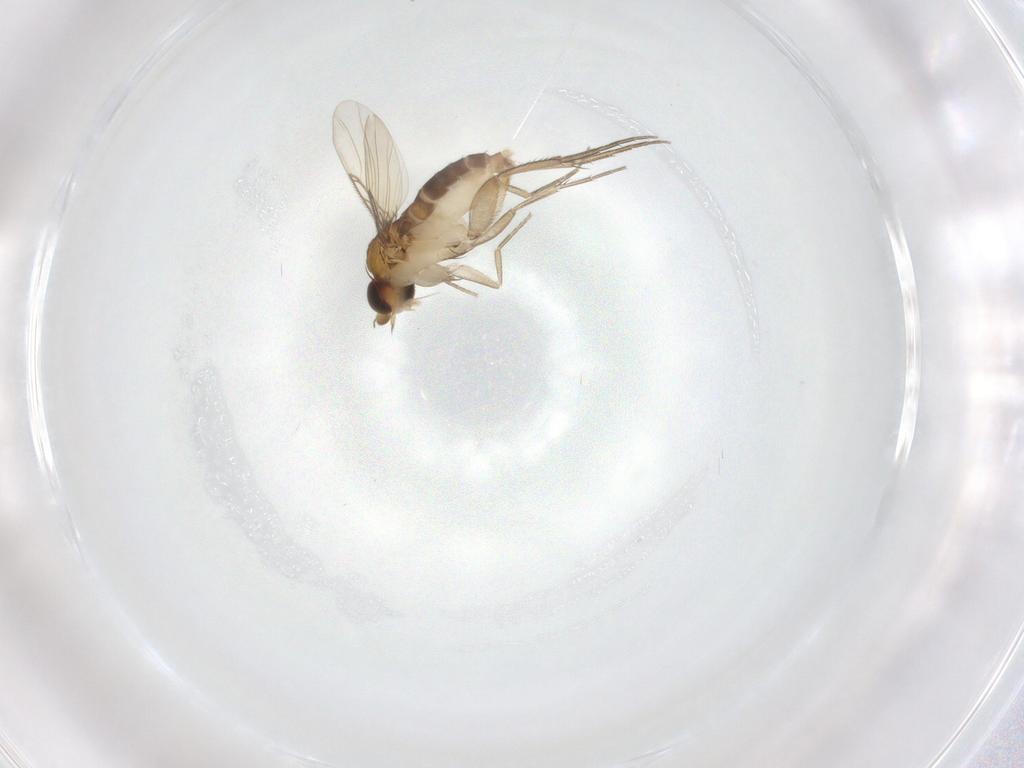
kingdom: Animalia
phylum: Arthropoda
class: Insecta
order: Diptera
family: Phoridae
